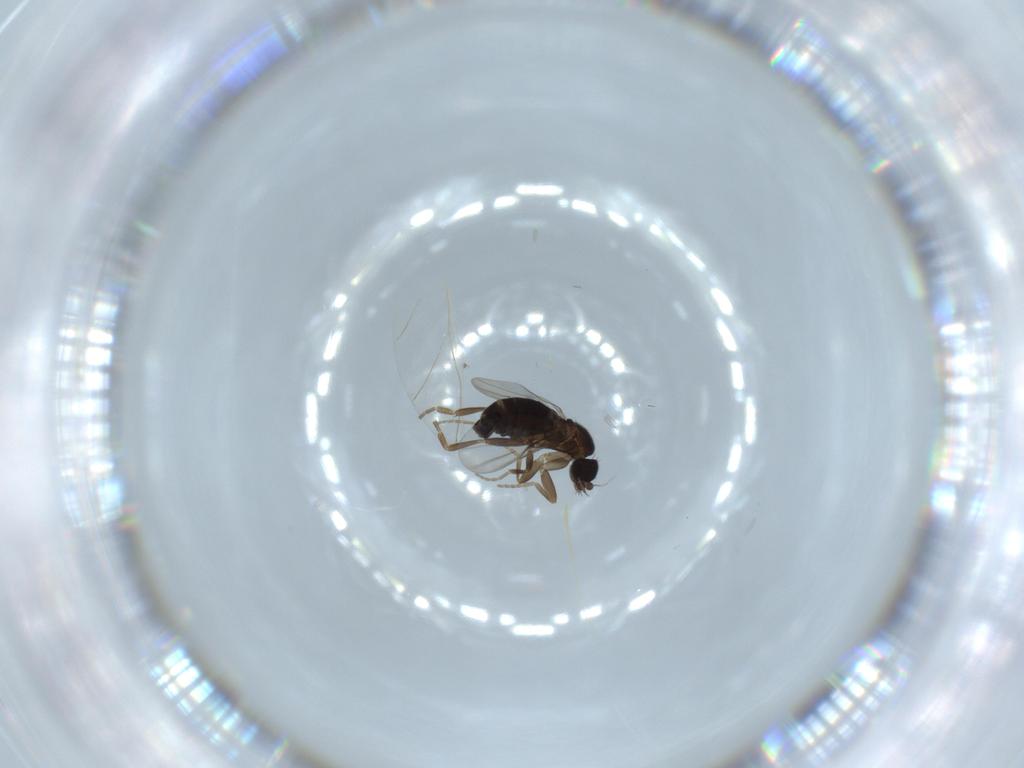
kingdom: Animalia
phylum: Arthropoda
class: Insecta
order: Diptera
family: Phoridae
